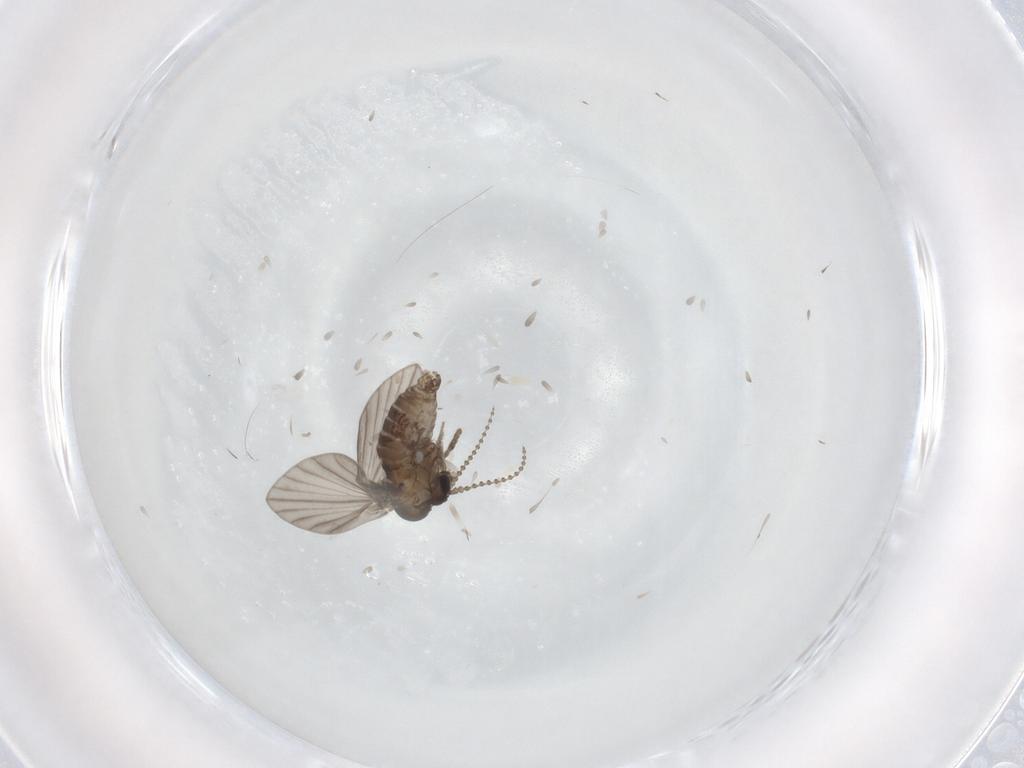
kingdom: Animalia
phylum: Arthropoda
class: Insecta
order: Diptera
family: Psychodidae
